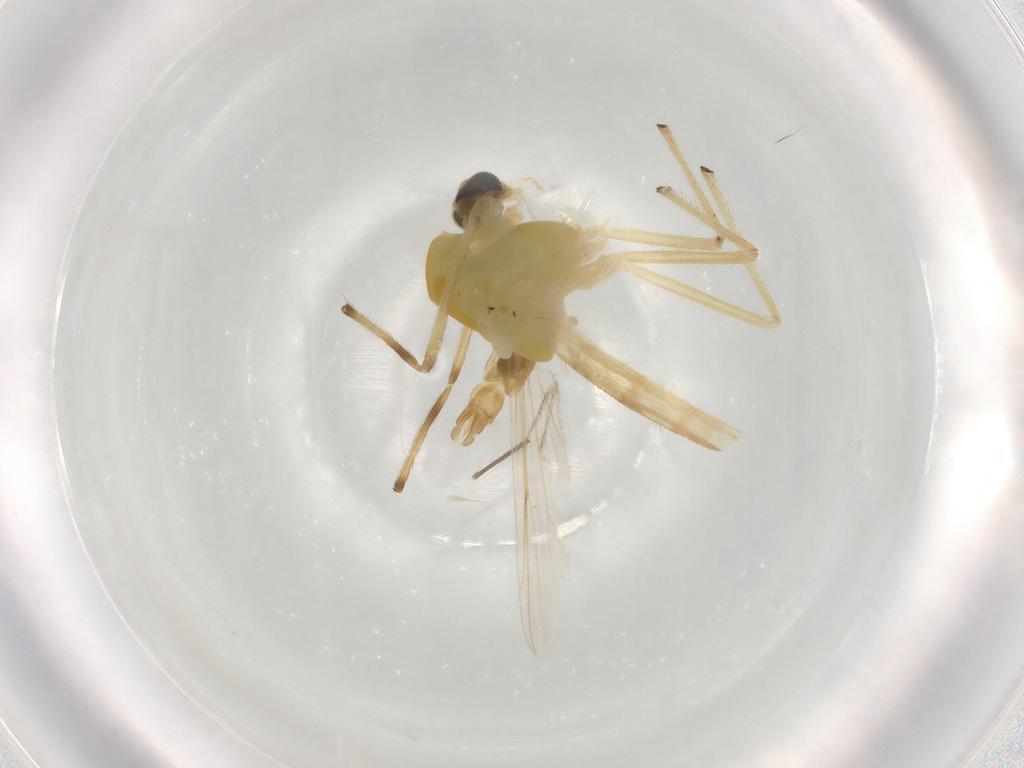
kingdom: Animalia
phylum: Arthropoda
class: Insecta
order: Diptera
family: Chironomidae
